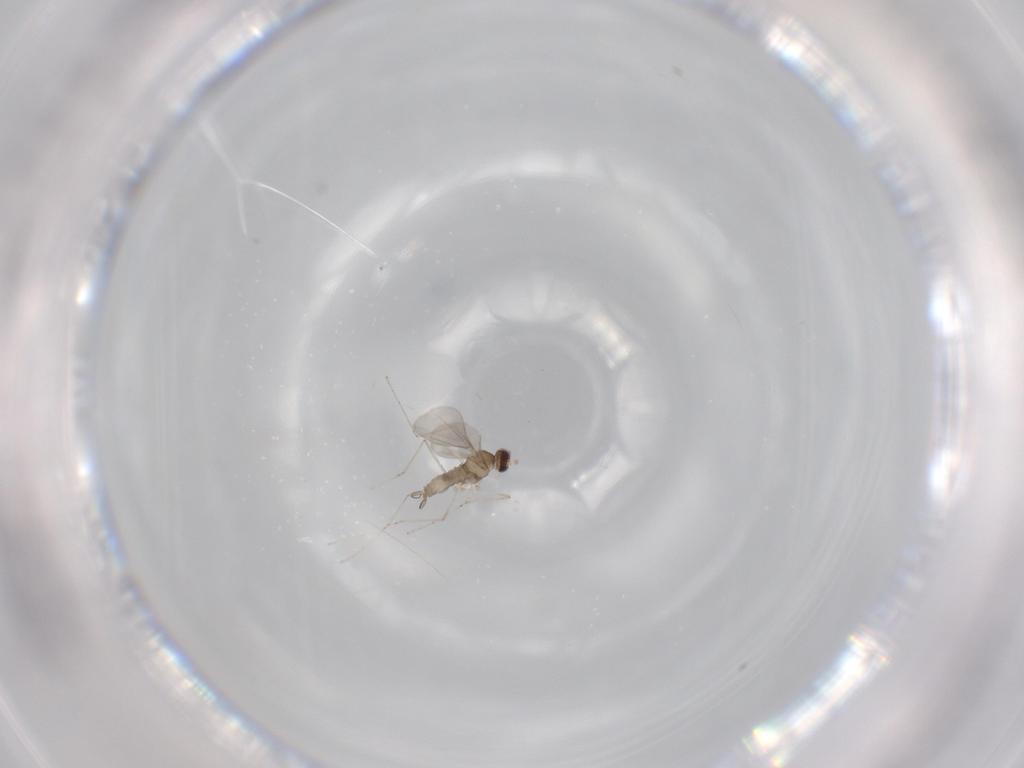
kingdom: Animalia
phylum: Arthropoda
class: Insecta
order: Diptera
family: Cecidomyiidae
